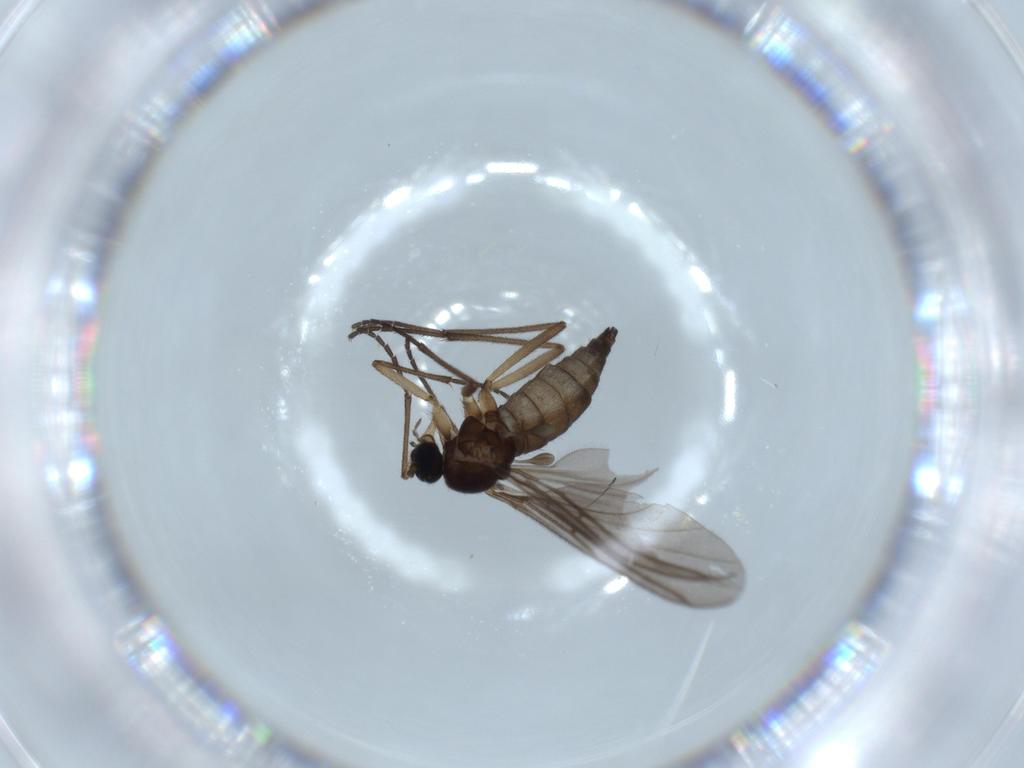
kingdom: Animalia
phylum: Arthropoda
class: Insecta
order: Diptera
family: Sciaridae
